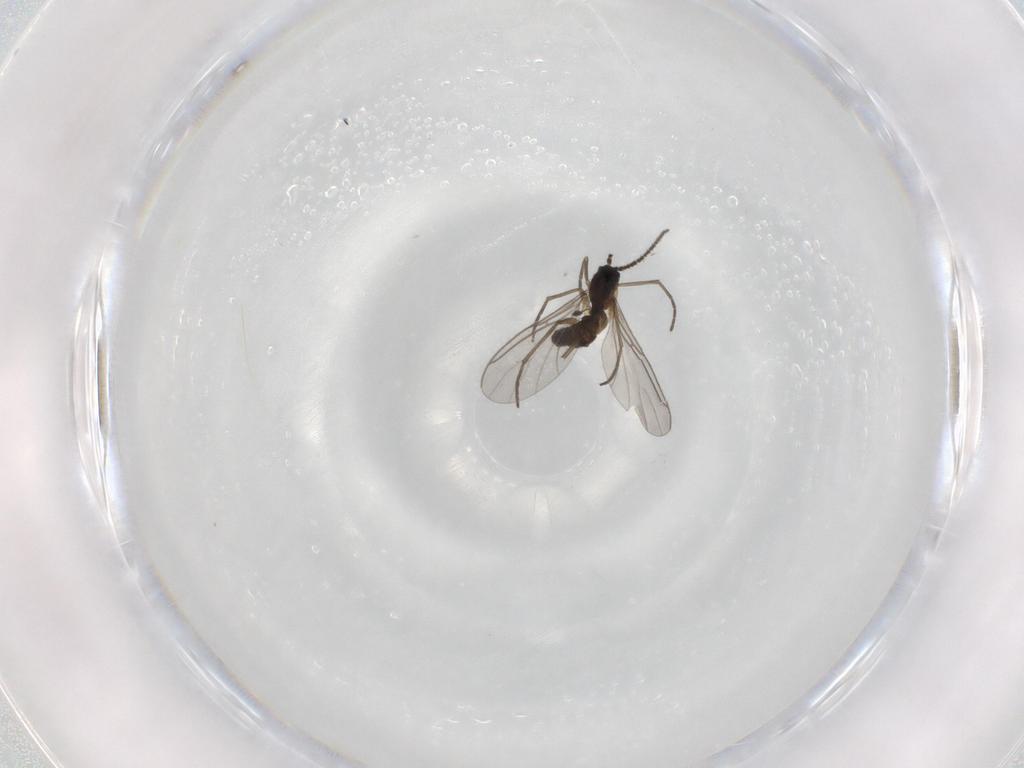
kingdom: Animalia
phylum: Arthropoda
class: Insecta
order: Diptera
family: Sciaridae
